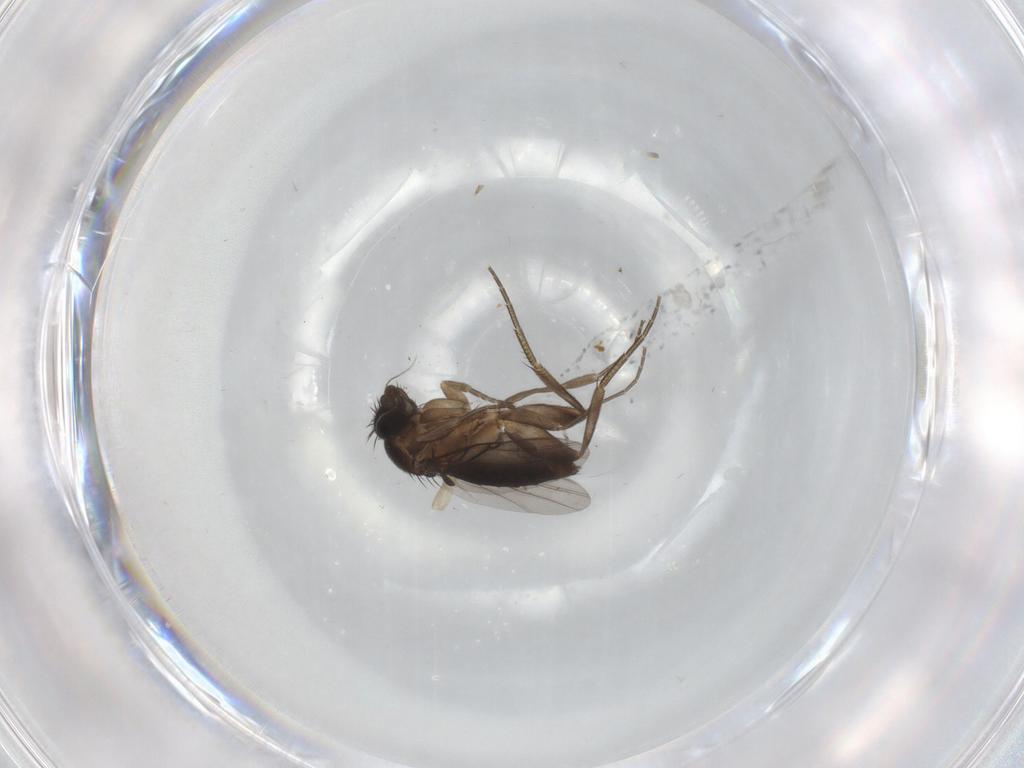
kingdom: Animalia
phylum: Arthropoda
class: Insecta
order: Diptera
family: Phoridae
